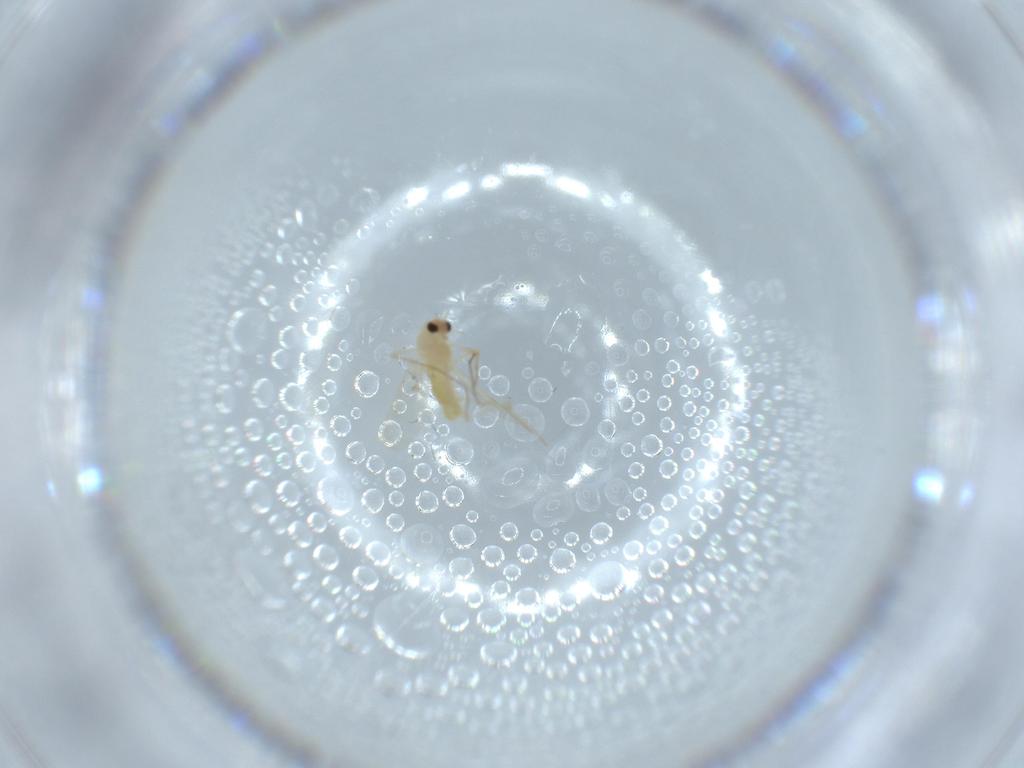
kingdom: Animalia
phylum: Arthropoda
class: Insecta
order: Diptera
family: Chironomidae
